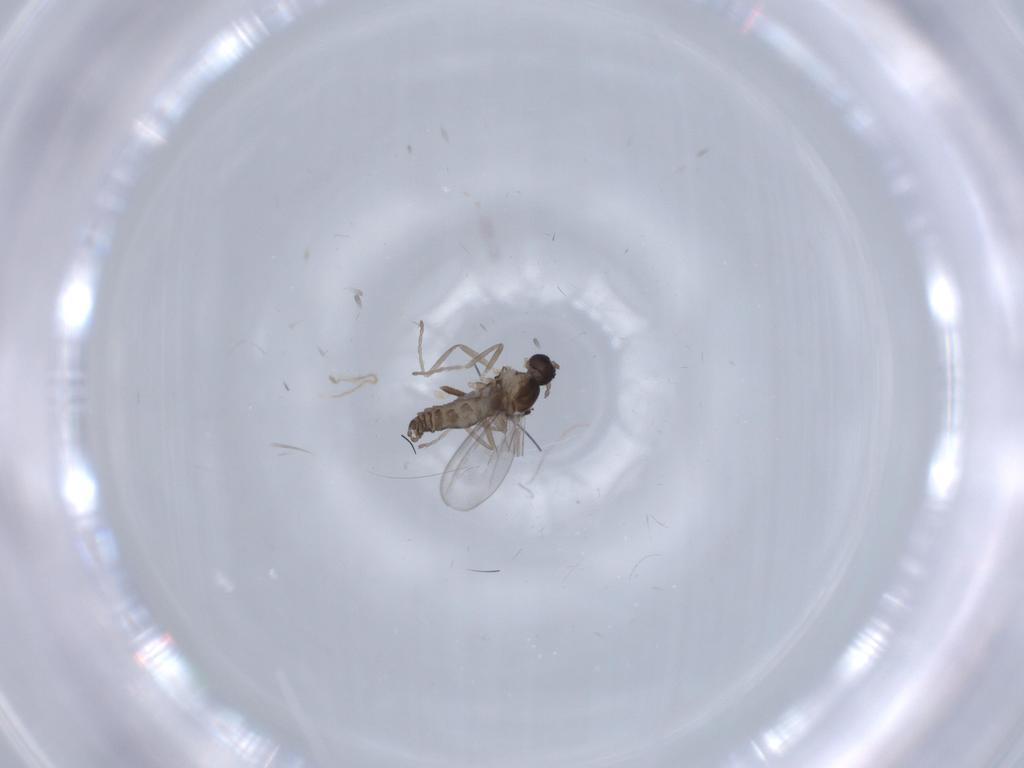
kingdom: Animalia
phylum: Arthropoda
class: Insecta
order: Diptera
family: Cecidomyiidae
